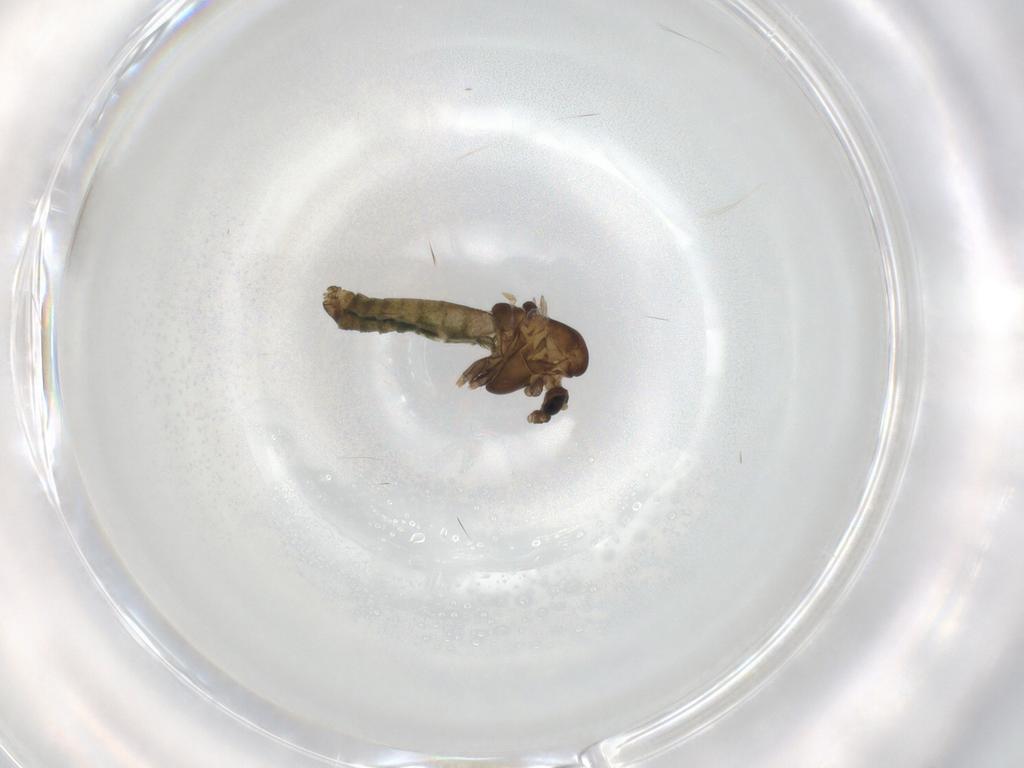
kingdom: Animalia
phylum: Arthropoda
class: Insecta
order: Diptera
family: Chironomidae
